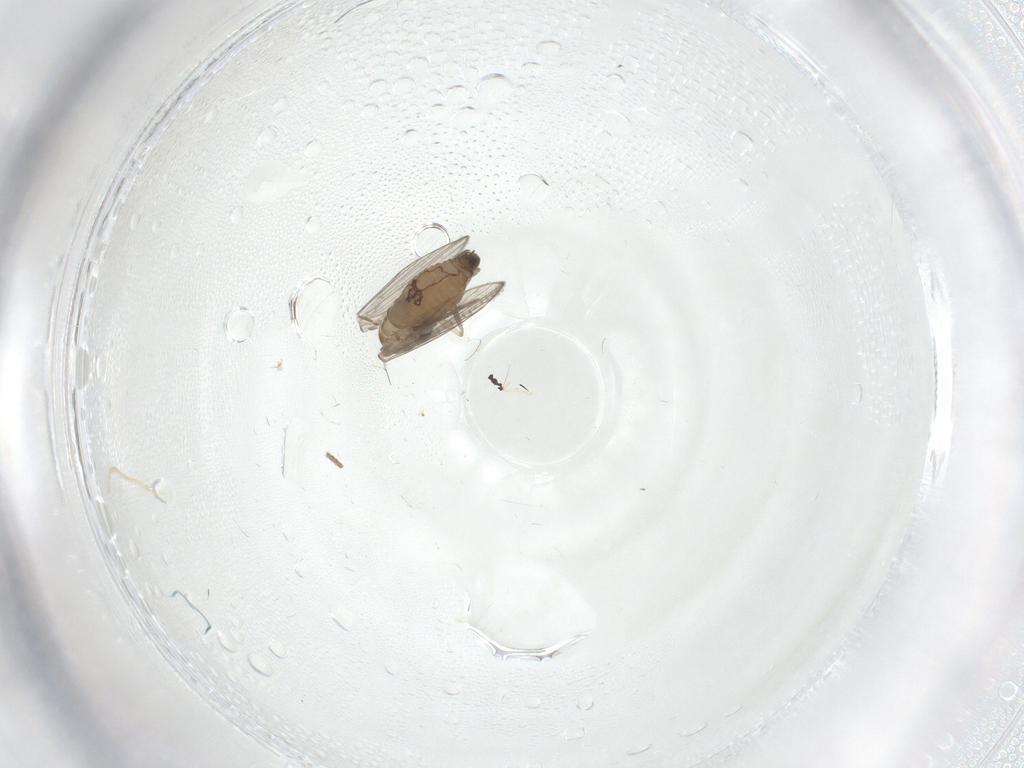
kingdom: Animalia
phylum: Arthropoda
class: Insecta
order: Diptera
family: Psychodidae
